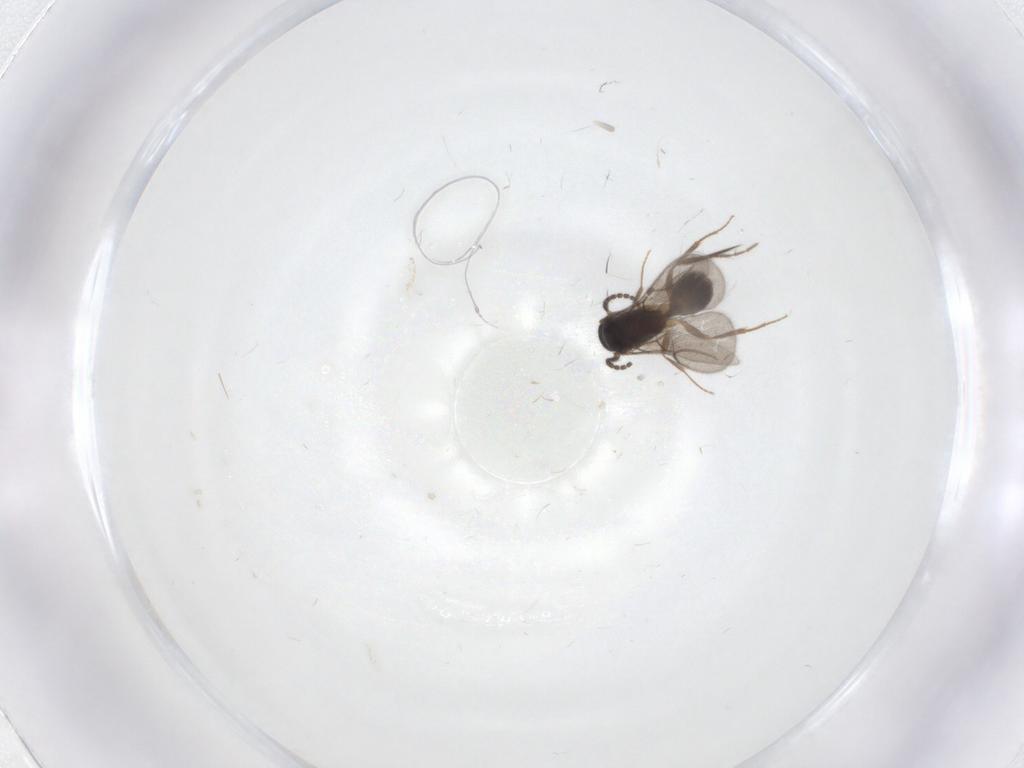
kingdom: Animalia
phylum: Arthropoda
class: Insecta
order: Hymenoptera
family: Bethylidae
